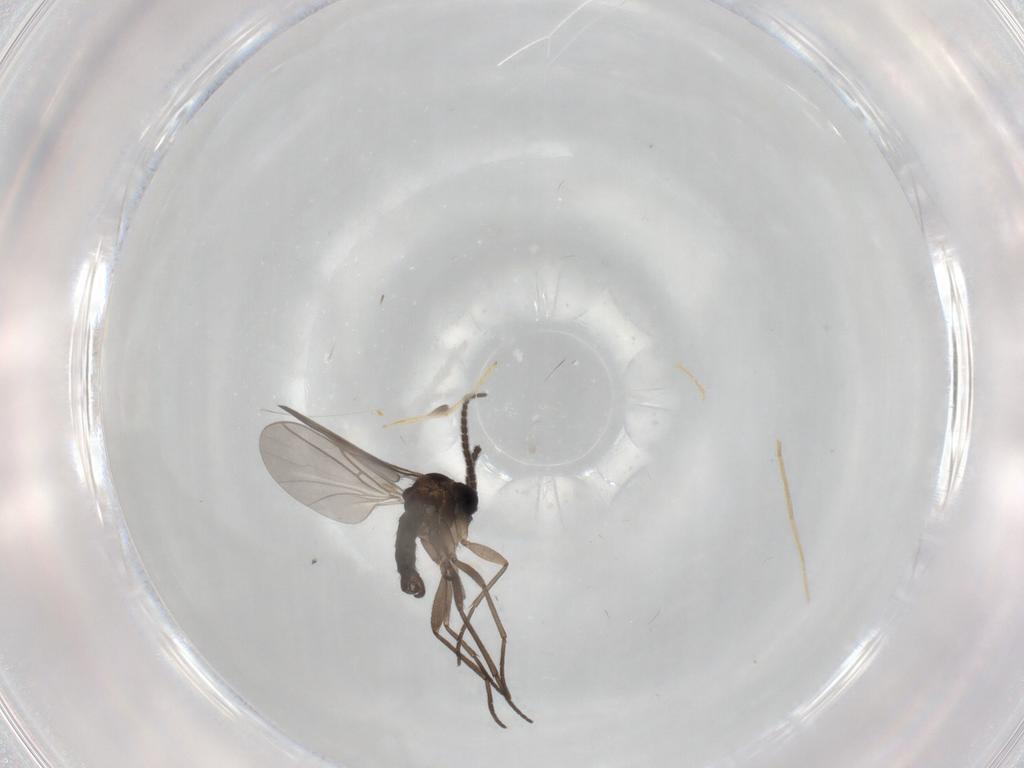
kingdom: Animalia
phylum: Arthropoda
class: Insecta
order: Diptera
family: Sciaridae
